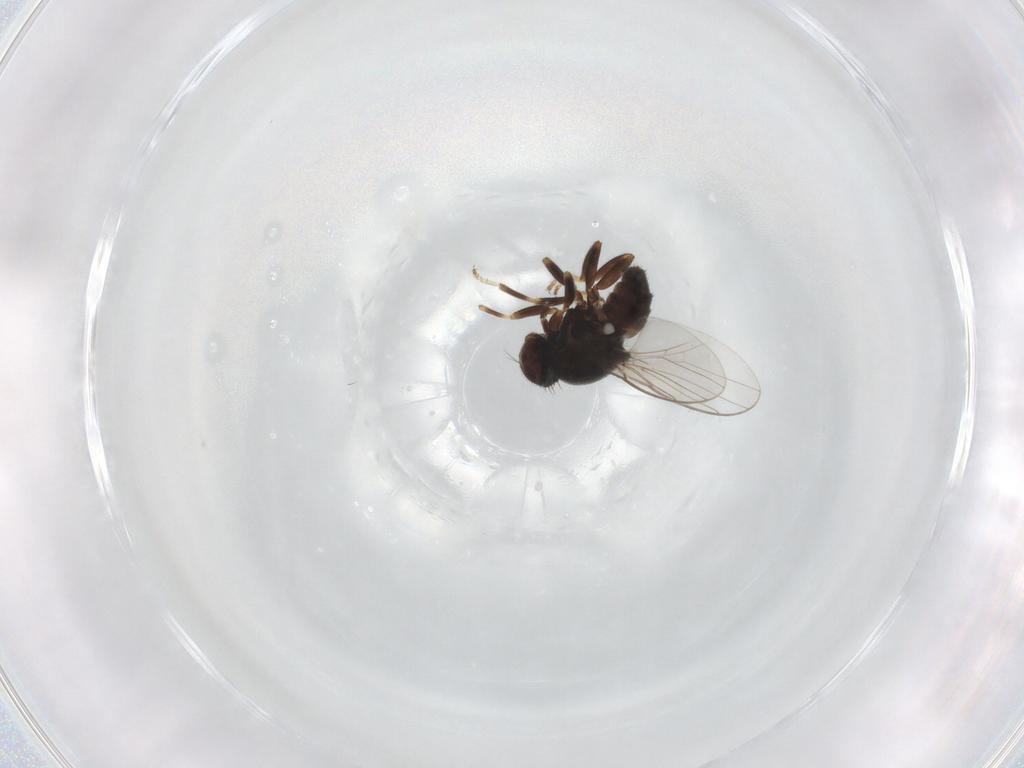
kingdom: Animalia
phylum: Arthropoda
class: Insecta
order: Diptera
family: Chloropidae
